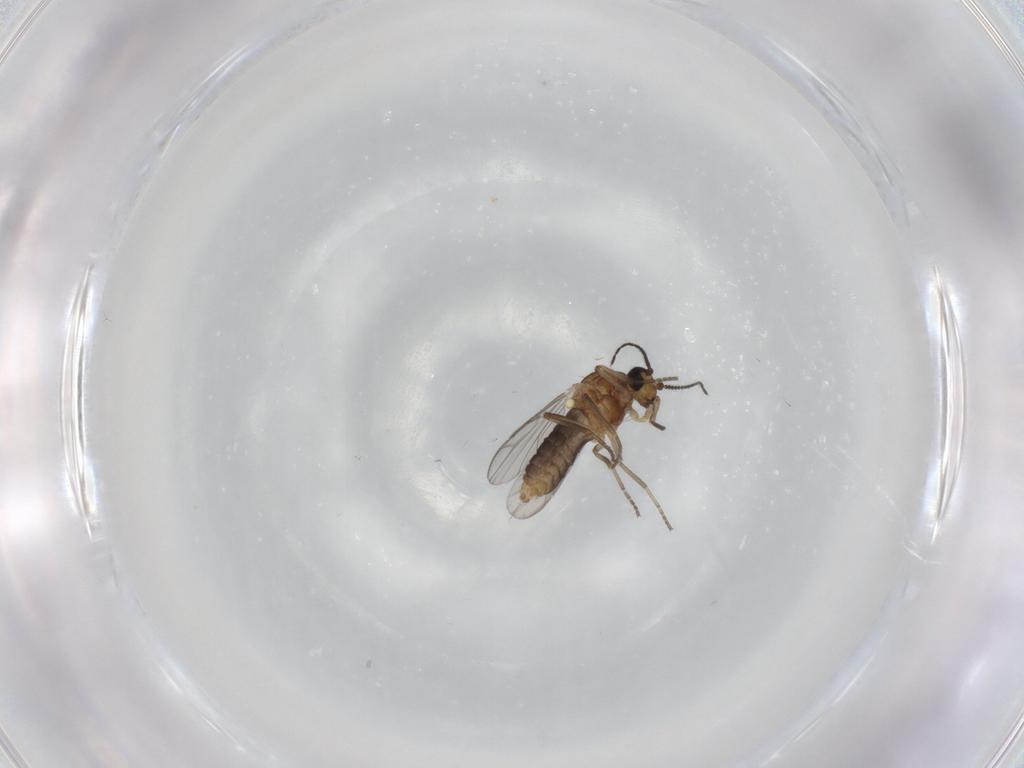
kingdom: Animalia
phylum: Arthropoda
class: Insecta
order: Diptera
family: Ceratopogonidae
